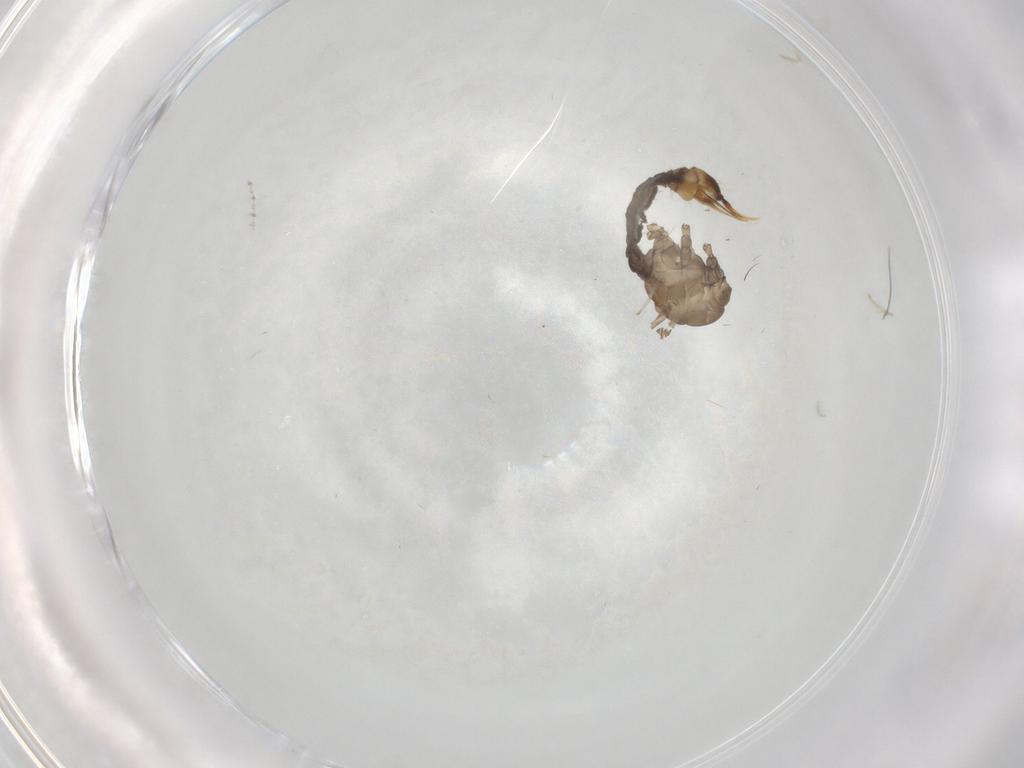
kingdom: Animalia
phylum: Arthropoda
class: Insecta
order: Diptera
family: Limoniidae
